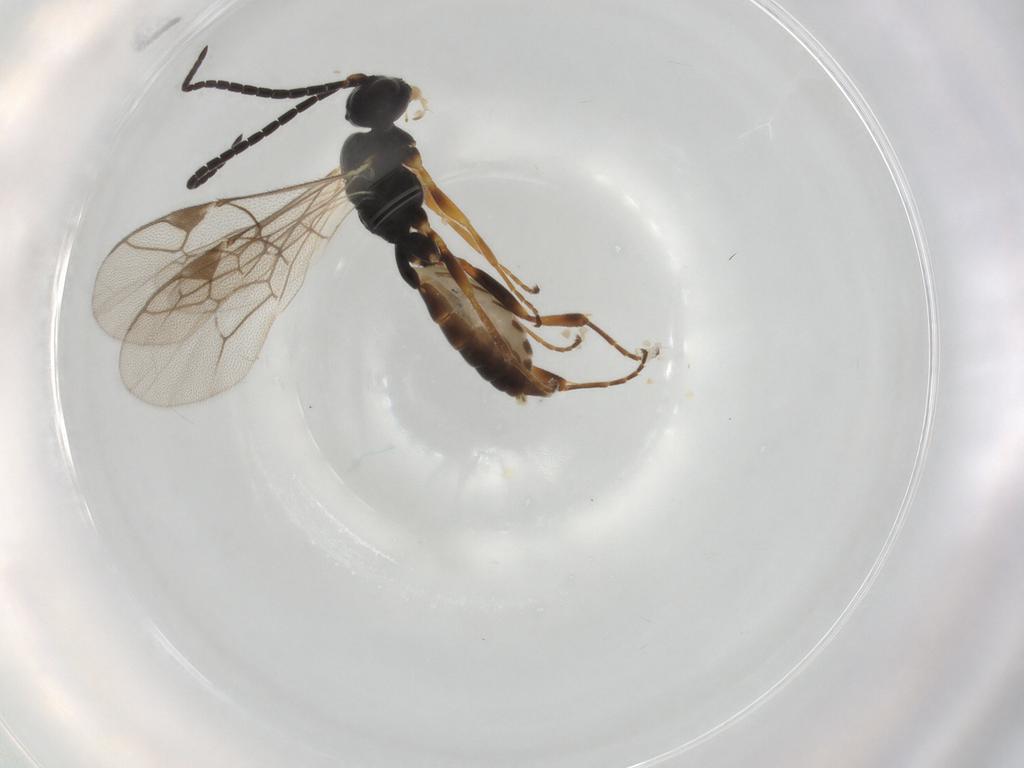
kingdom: Animalia
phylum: Arthropoda
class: Insecta
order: Hymenoptera
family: Ichneumonidae
